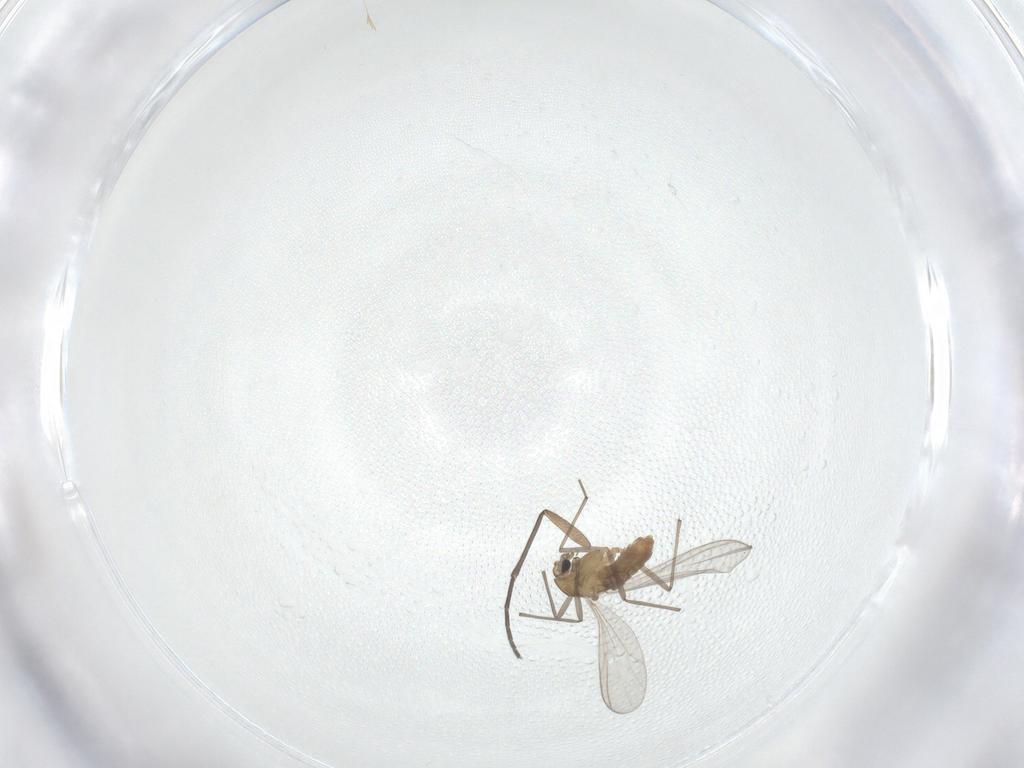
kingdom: Animalia
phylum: Arthropoda
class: Insecta
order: Diptera
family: Chironomidae
